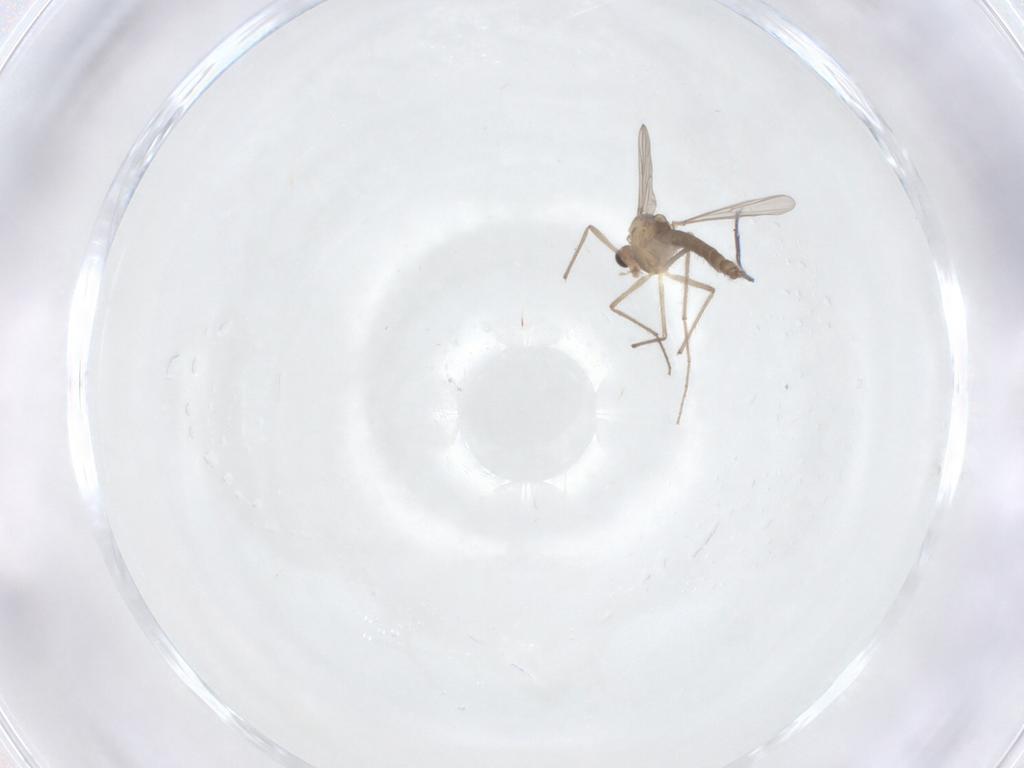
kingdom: Animalia
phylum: Arthropoda
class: Insecta
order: Diptera
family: Chironomidae
